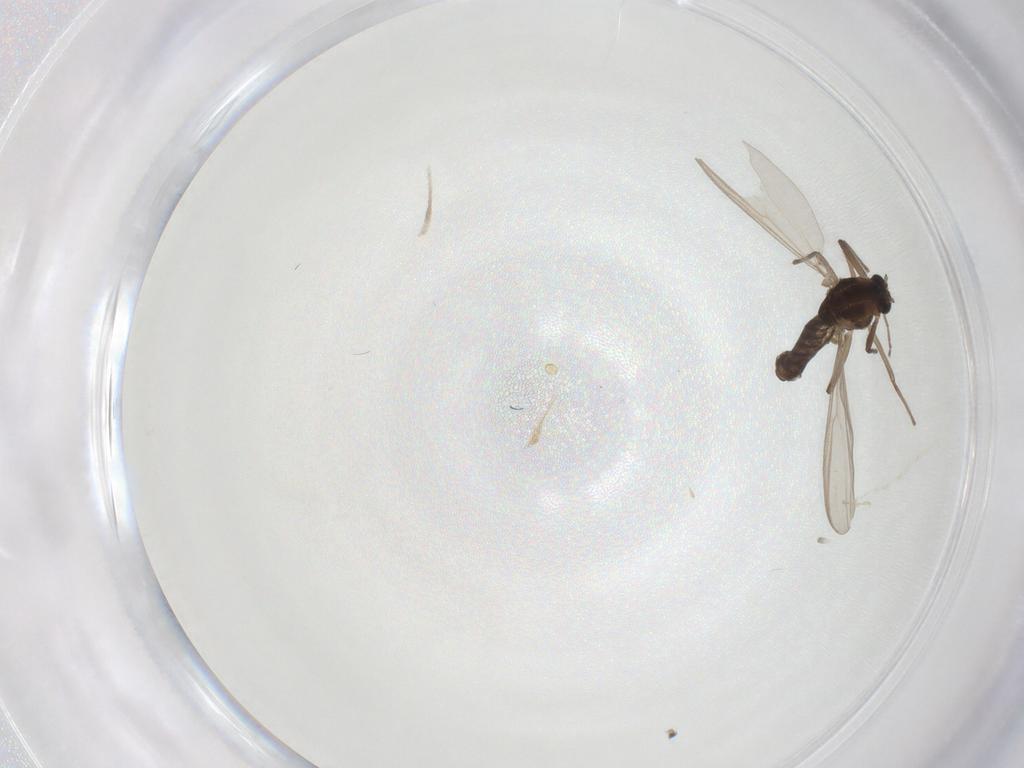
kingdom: Animalia
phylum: Arthropoda
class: Insecta
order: Diptera
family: Chironomidae
